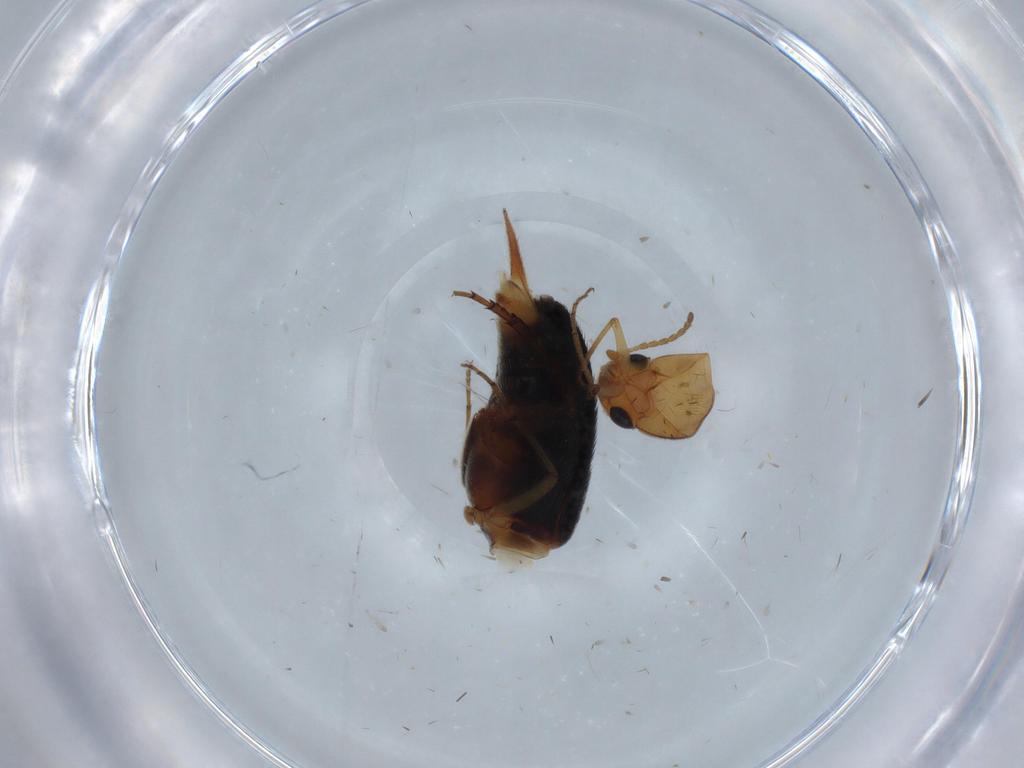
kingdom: Animalia
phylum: Arthropoda
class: Insecta
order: Coleoptera
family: Mordellidae
